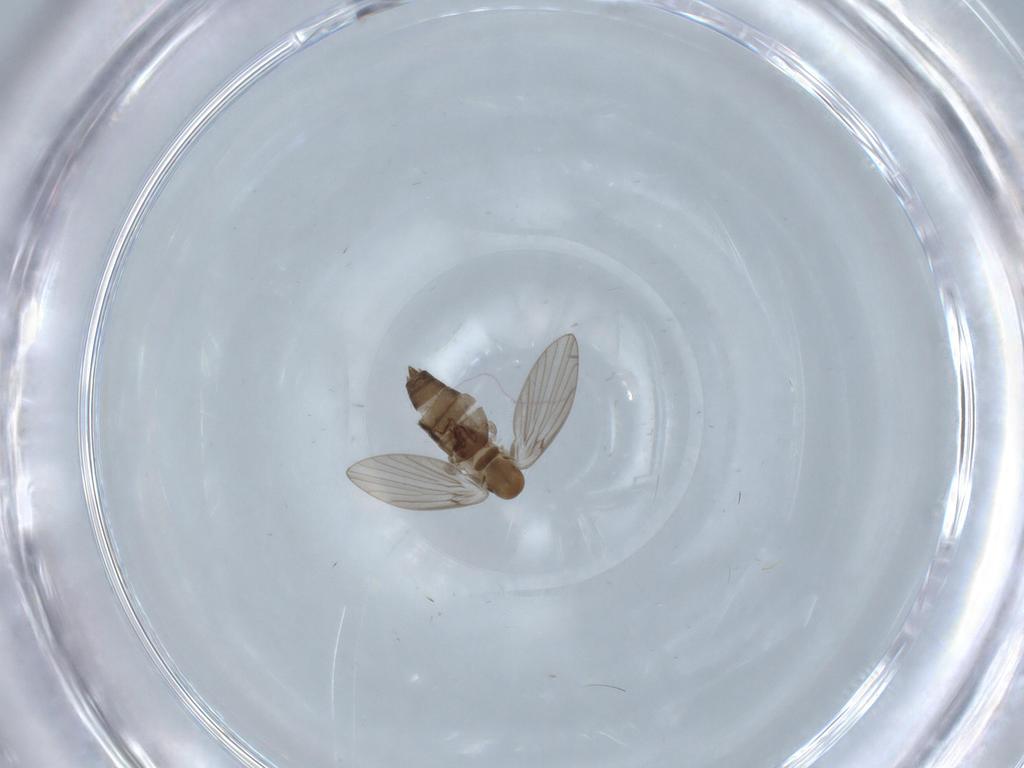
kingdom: Animalia
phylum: Arthropoda
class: Insecta
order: Diptera
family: Psychodidae
